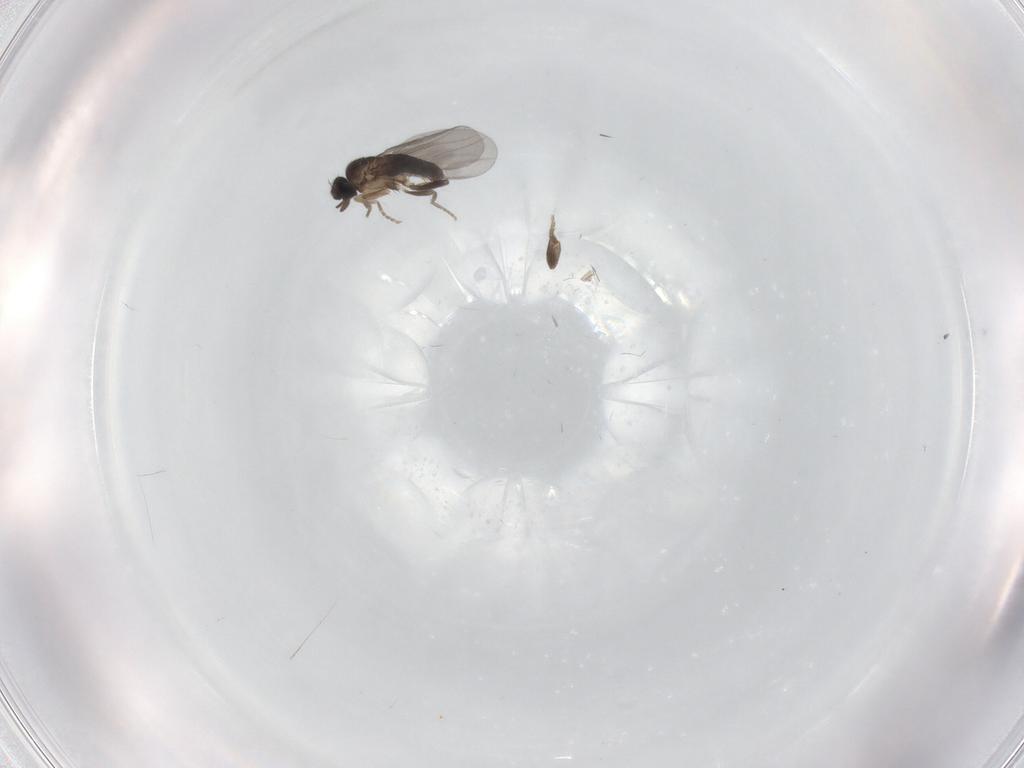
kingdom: Animalia
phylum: Arthropoda
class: Insecta
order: Diptera
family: Phoridae
